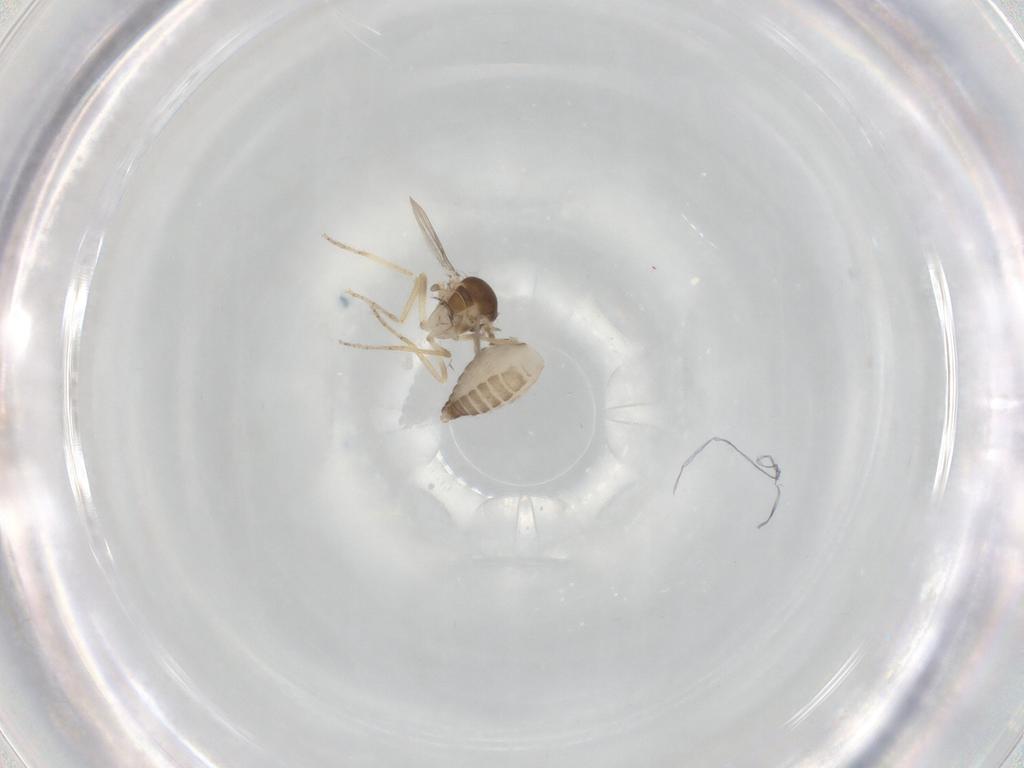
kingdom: Animalia
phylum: Arthropoda
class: Insecta
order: Diptera
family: Ceratopogonidae
